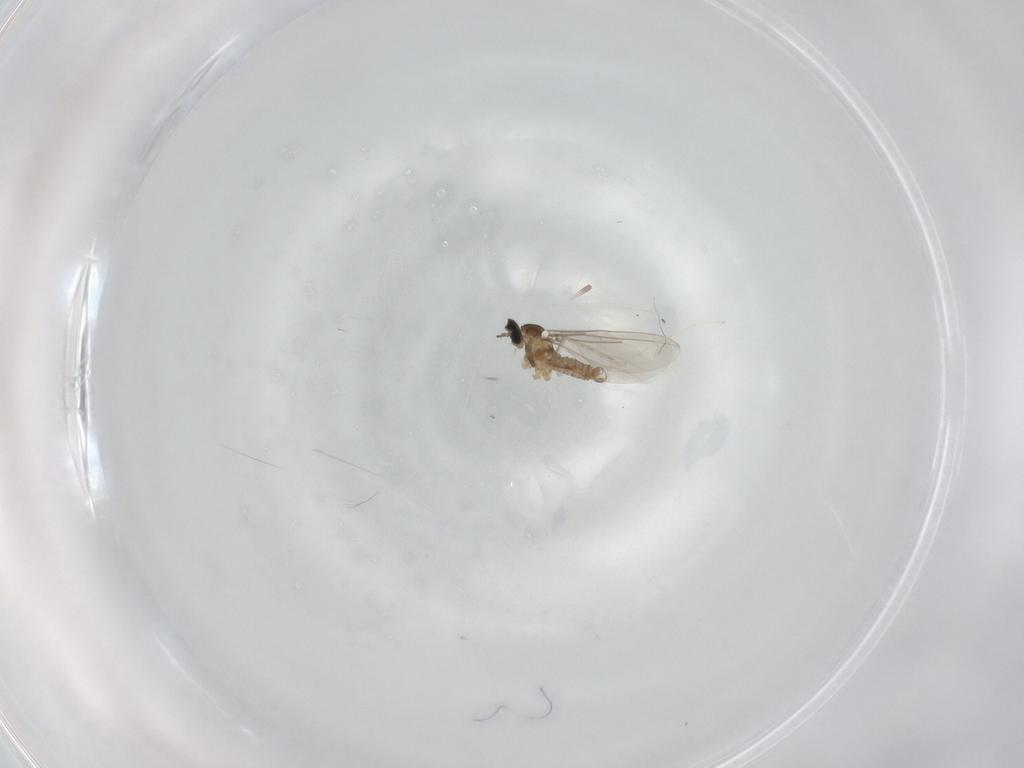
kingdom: Animalia
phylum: Arthropoda
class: Insecta
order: Diptera
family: Cecidomyiidae
